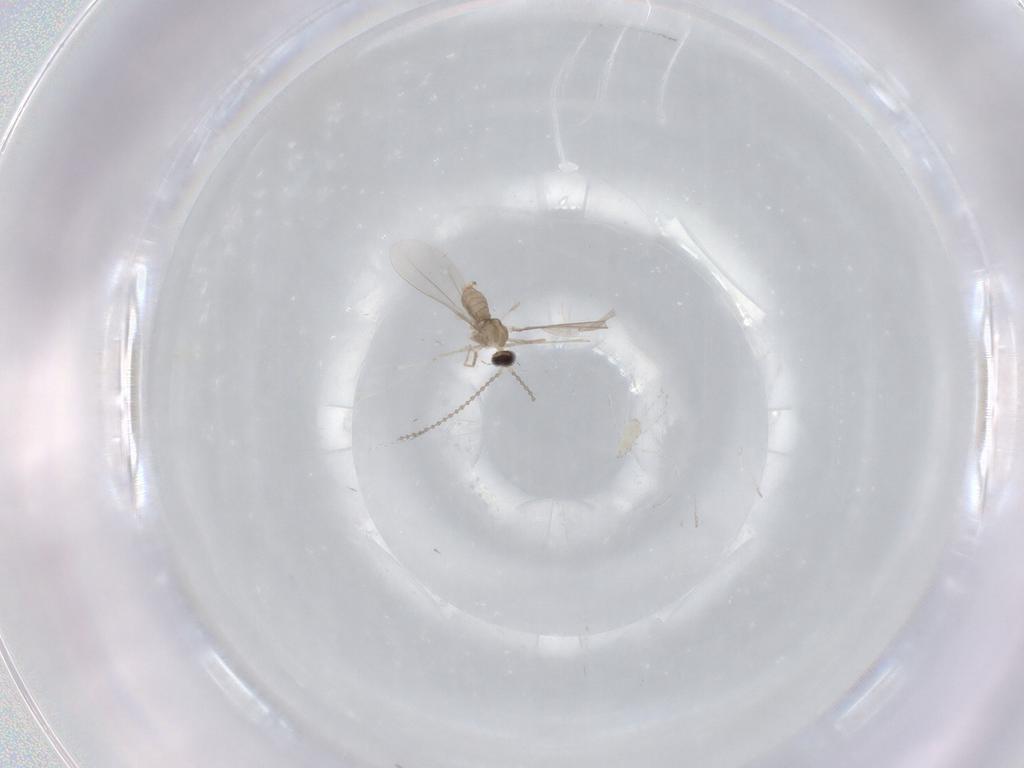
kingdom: Animalia
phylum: Arthropoda
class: Insecta
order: Diptera
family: Cecidomyiidae
